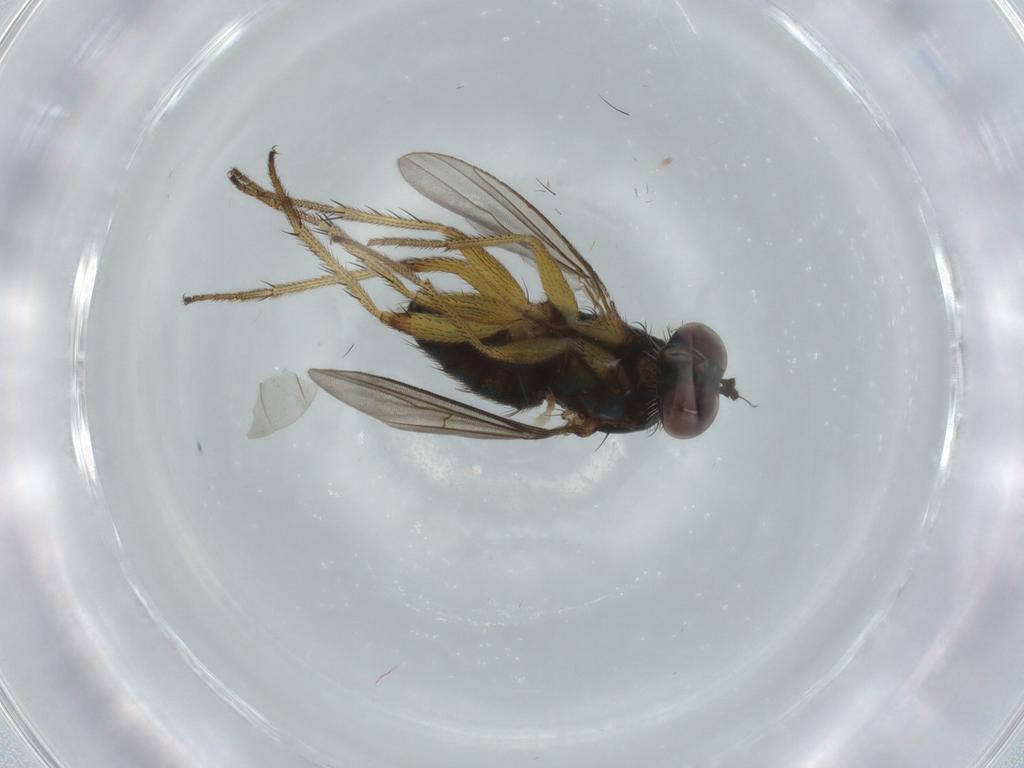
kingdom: Animalia
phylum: Arthropoda
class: Insecta
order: Diptera
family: Dolichopodidae
